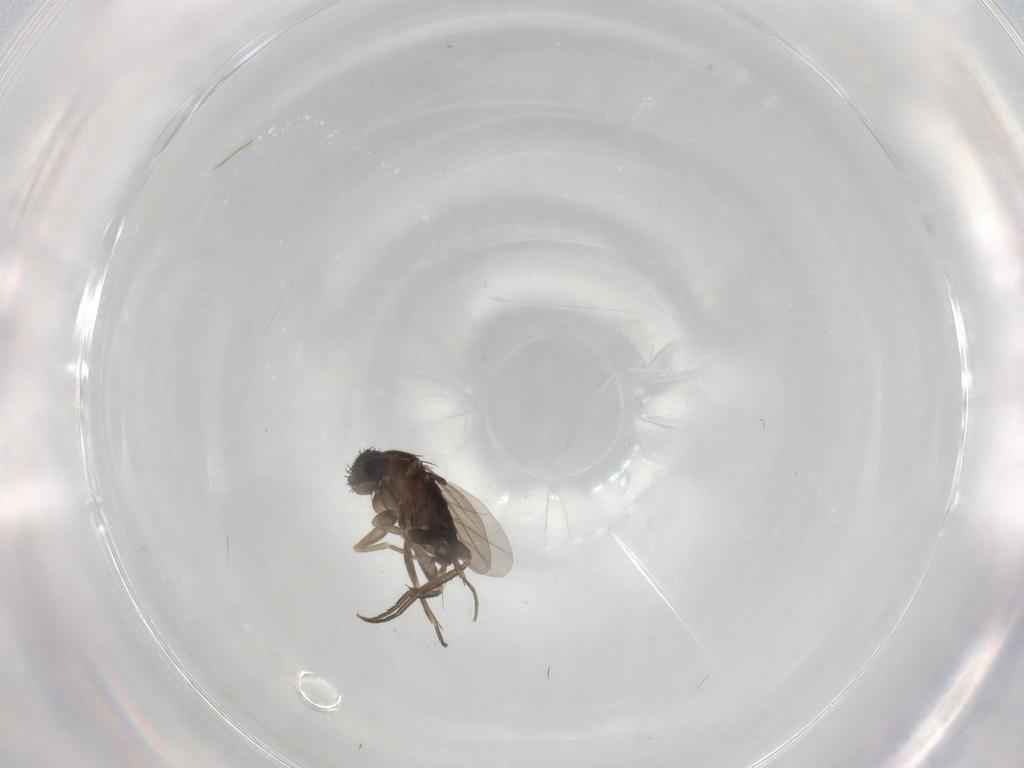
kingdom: Animalia
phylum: Arthropoda
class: Insecta
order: Diptera
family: Phoridae
